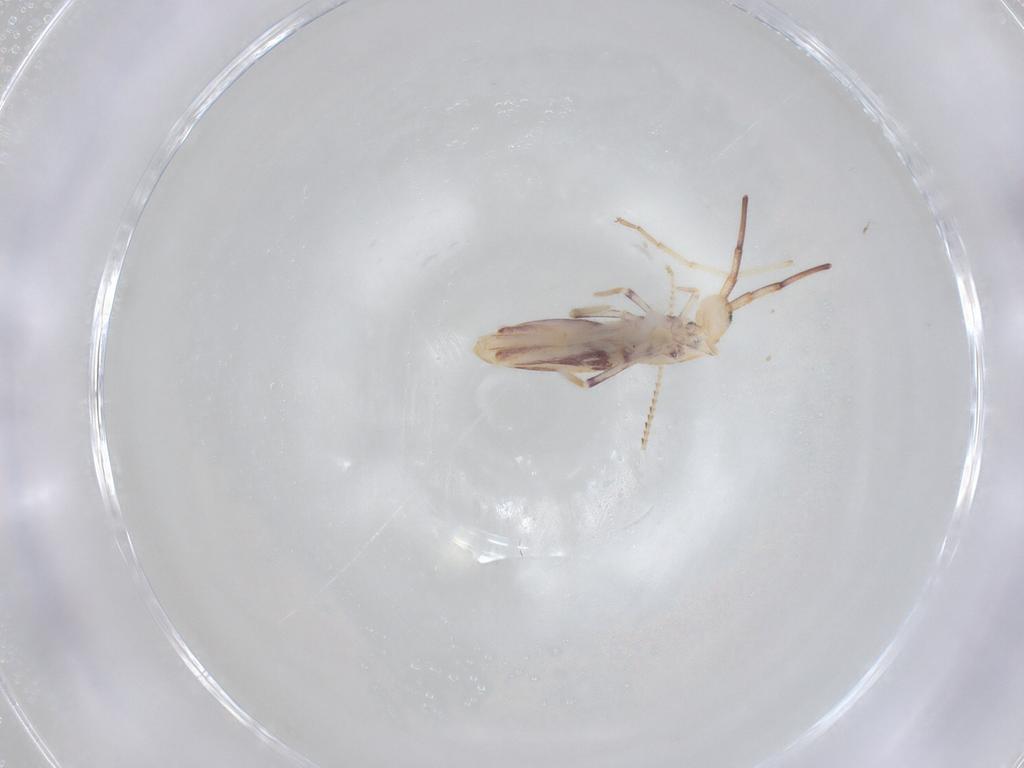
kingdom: Animalia
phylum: Arthropoda
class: Collembola
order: Poduromorpha
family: Hypogastruridae
